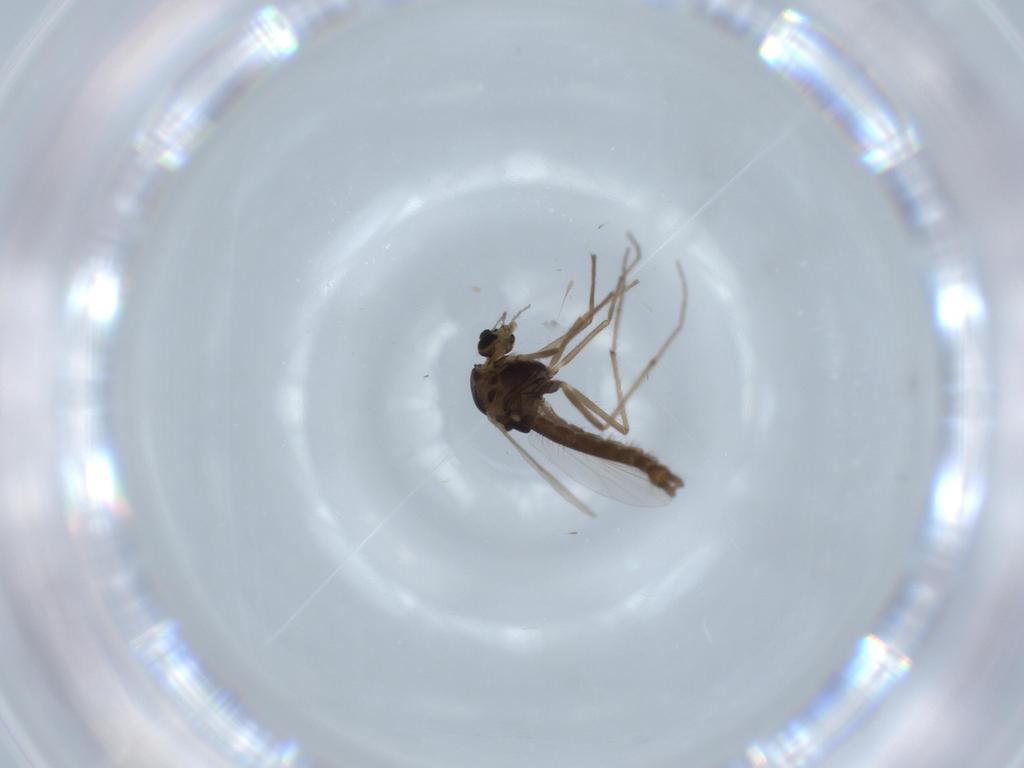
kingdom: Animalia
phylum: Arthropoda
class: Insecta
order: Diptera
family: Chironomidae
